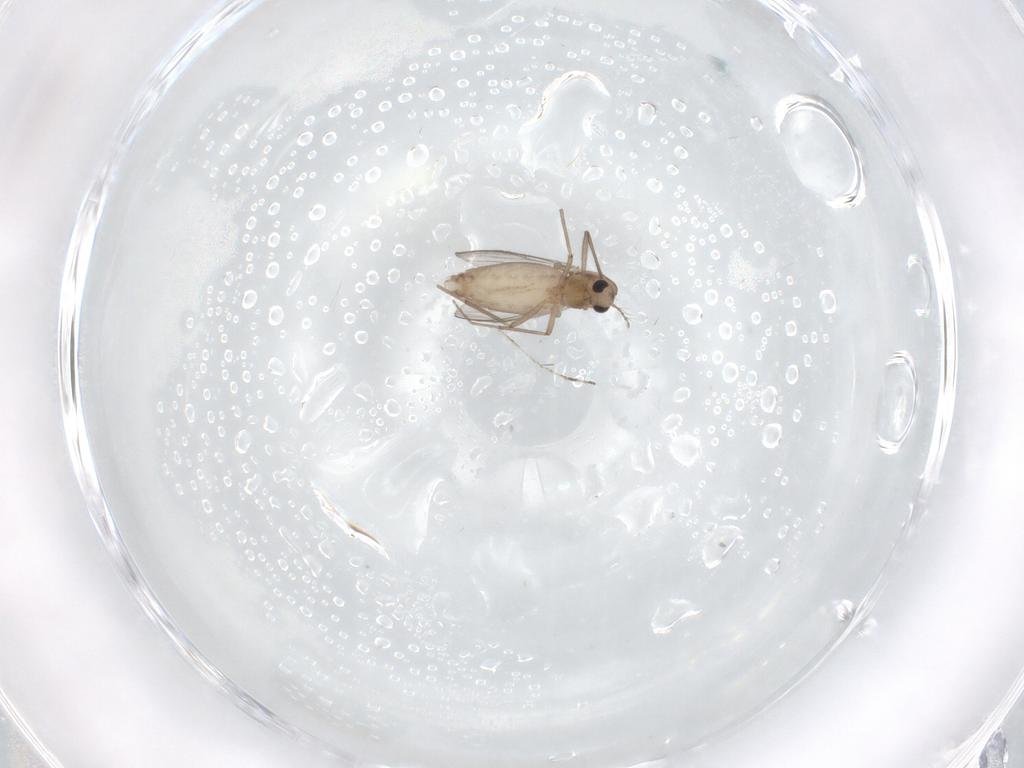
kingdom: Animalia
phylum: Arthropoda
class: Insecta
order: Diptera
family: Chironomidae
